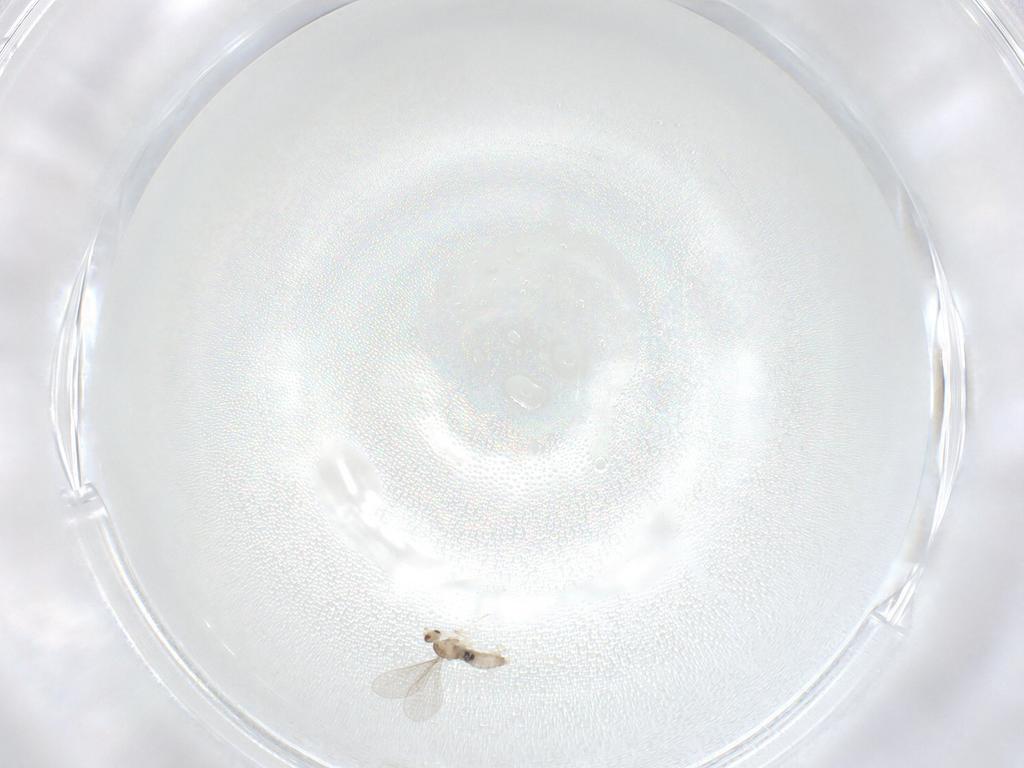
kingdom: Animalia
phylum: Arthropoda
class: Insecta
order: Diptera
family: Cecidomyiidae
